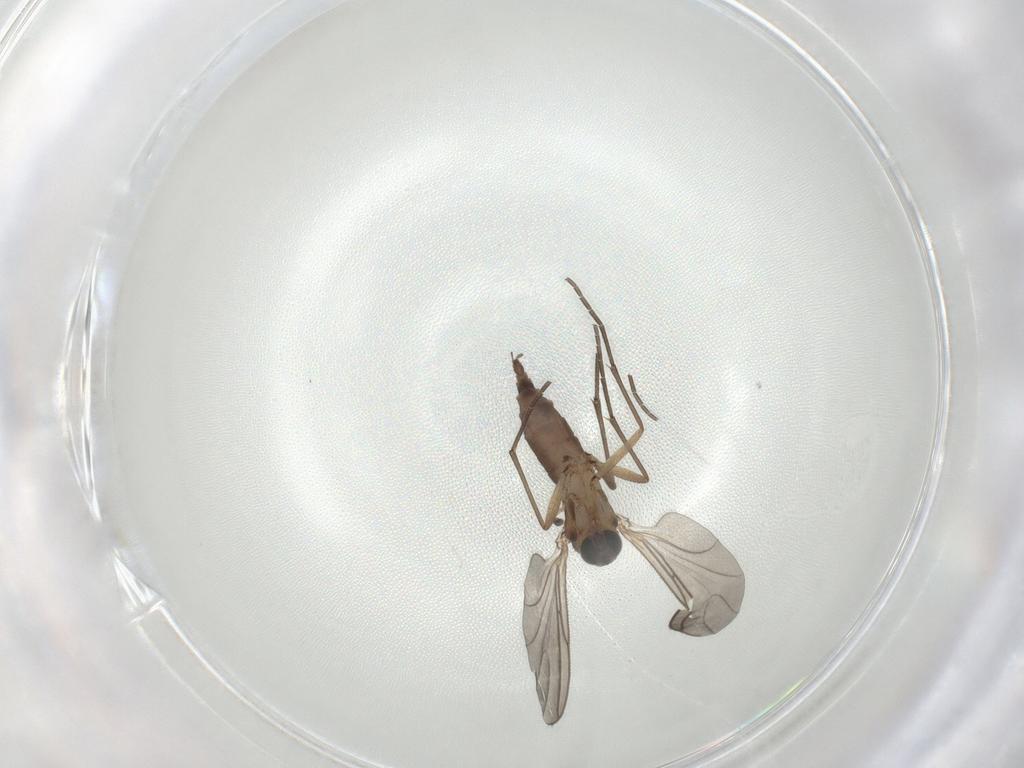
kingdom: Animalia
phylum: Arthropoda
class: Insecta
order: Diptera
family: Sciaridae
